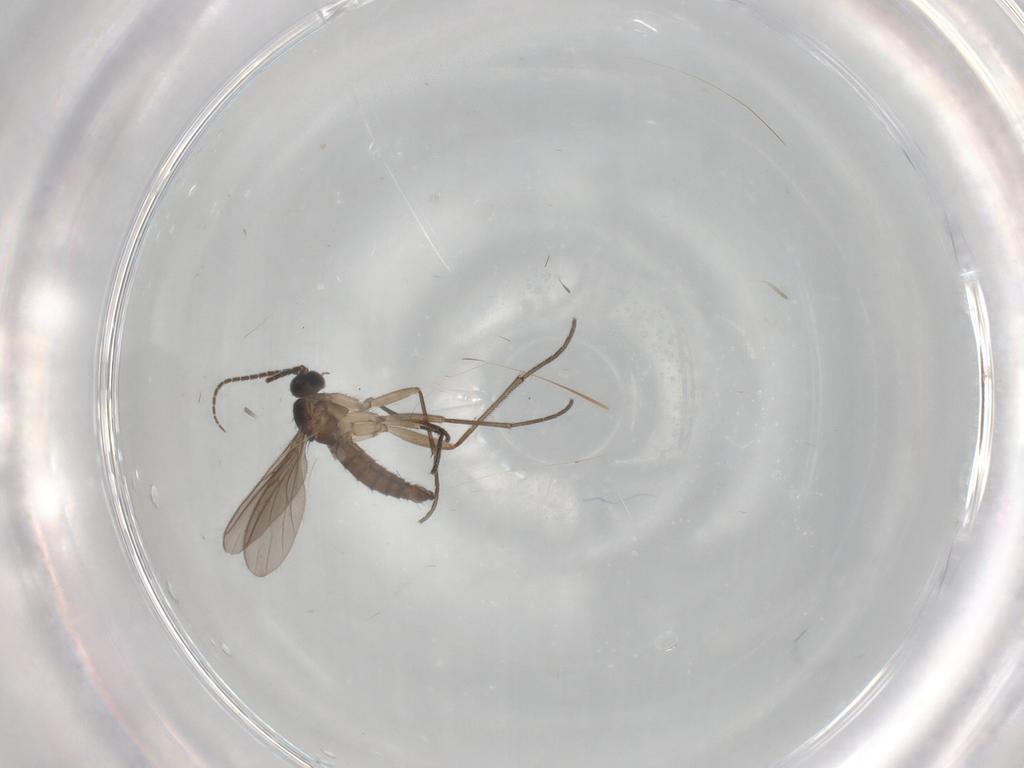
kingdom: Animalia
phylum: Arthropoda
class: Insecta
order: Diptera
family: Sciaridae
